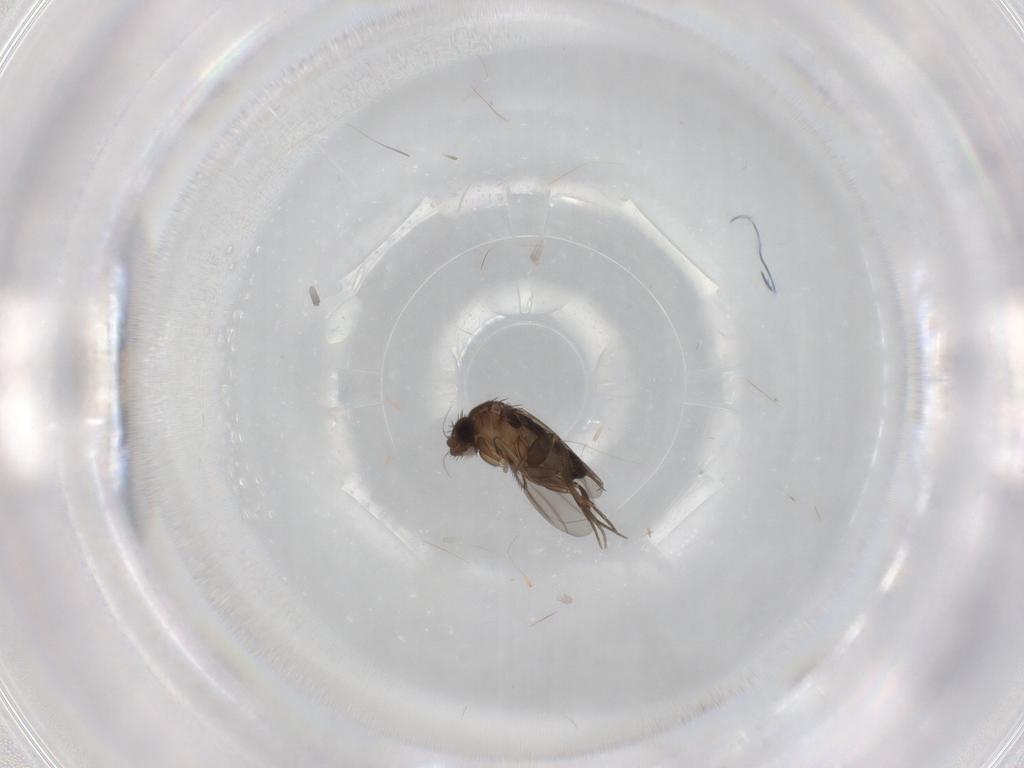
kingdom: Animalia
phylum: Arthropoda
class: Insecta
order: Diptera
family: Phoridae
